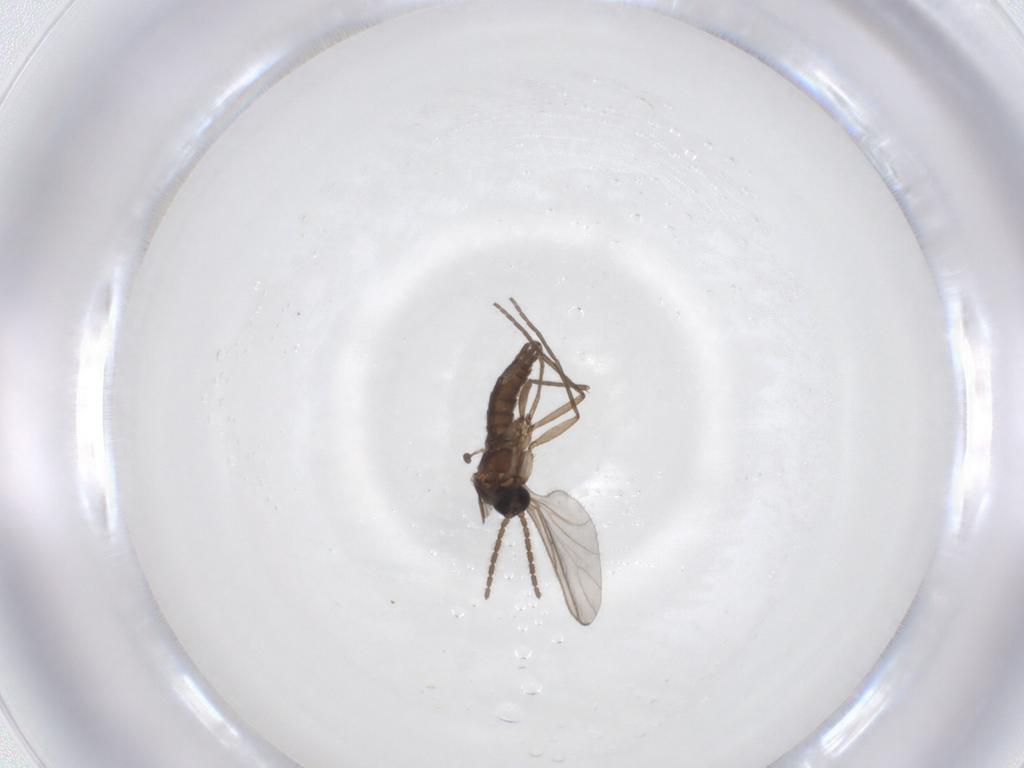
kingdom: Animalia
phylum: Arthropoda
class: Insecta
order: Diptera
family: Sciaridae
